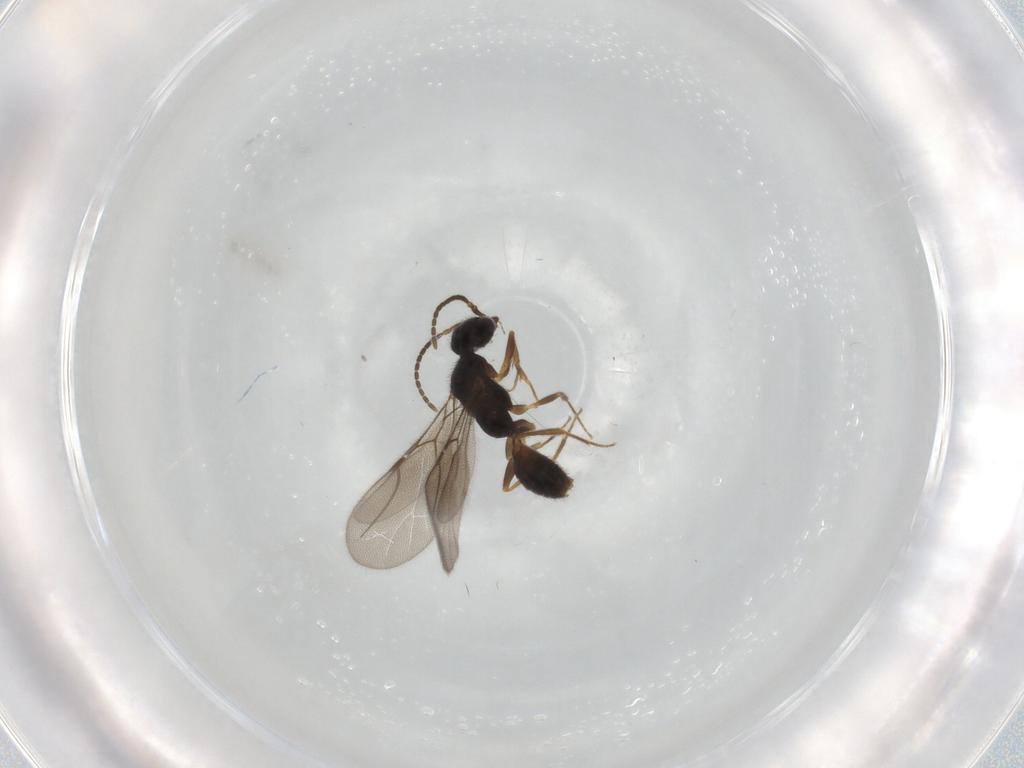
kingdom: Animalia
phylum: Arthropoda
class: Insecta
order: Hymenoptera
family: Bethylidae
